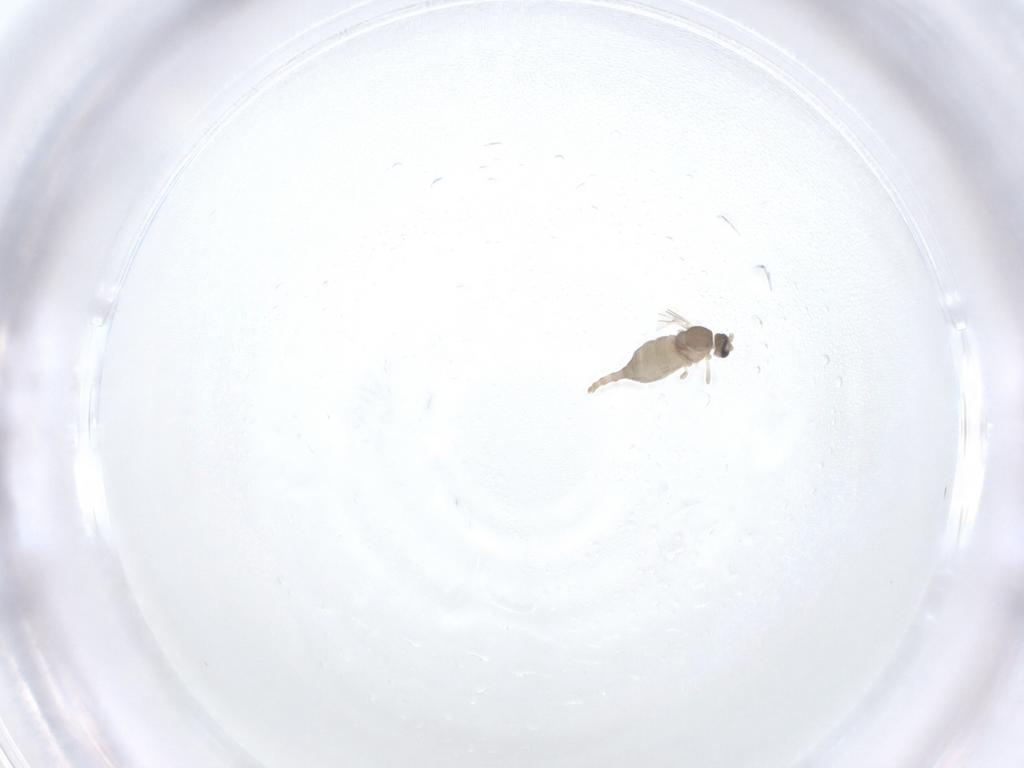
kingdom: Animalia
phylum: Arthropoda
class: Insecta
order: Diptera
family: Cecidomyiidae
